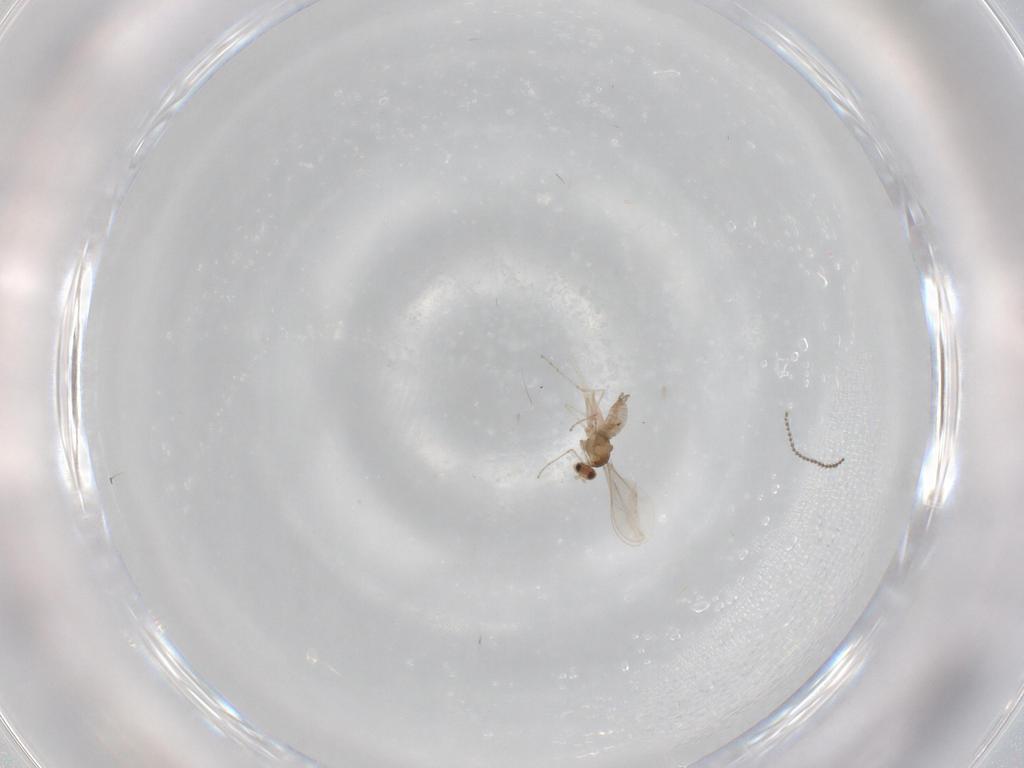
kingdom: Animalia
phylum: Arthropoda
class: Insecta
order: Diptera
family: Cecidomyiidae
